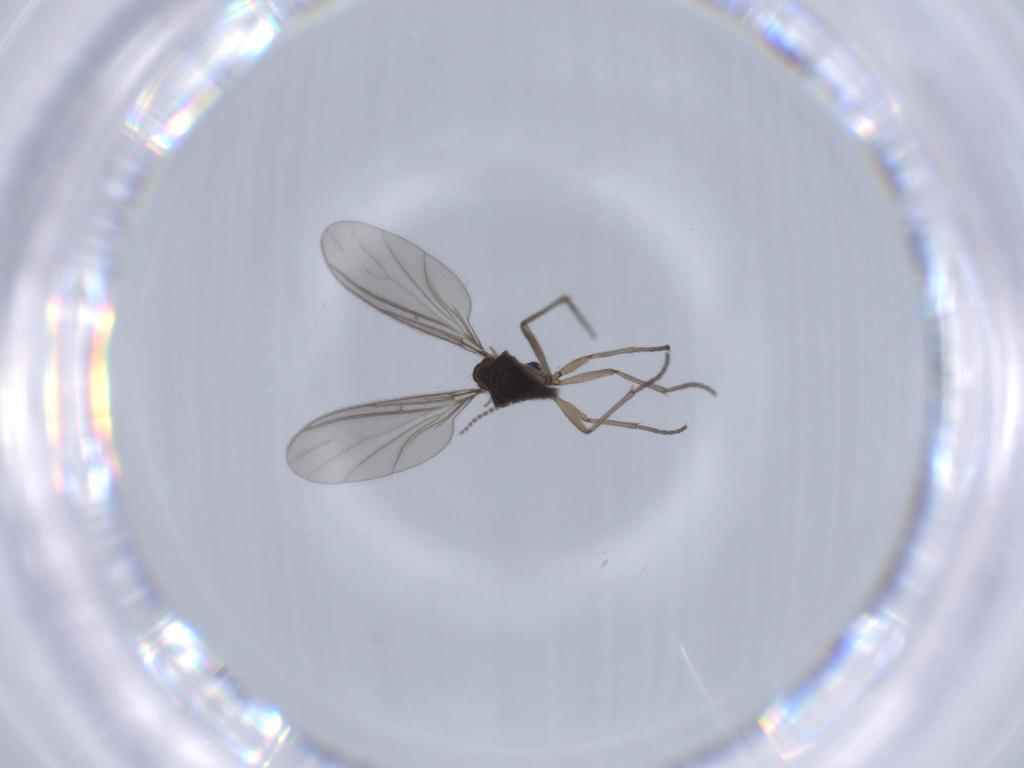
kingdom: Animalia
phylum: Arthropoda
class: Insecta
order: Diptera
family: Sciaridae
